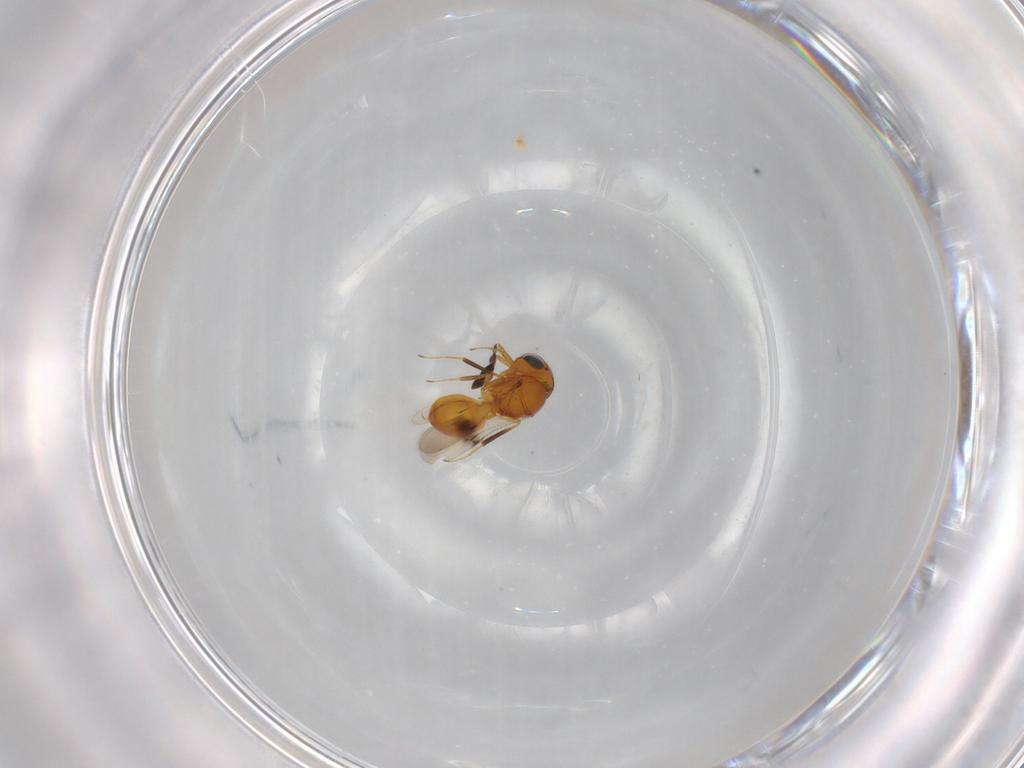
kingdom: Animalia
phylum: Arthropoda
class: Insecta
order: Hymenoptera
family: Scelionidae
